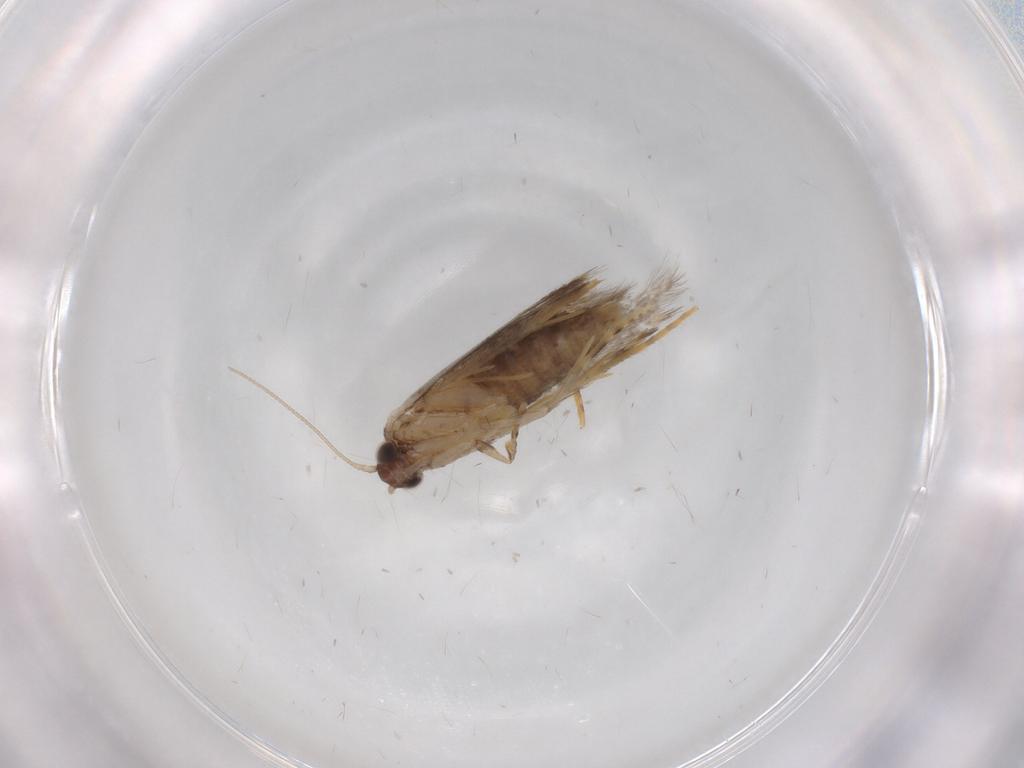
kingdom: Animalia
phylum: Arthropoda
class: Insecta
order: Lepidoptera
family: Tineidae
